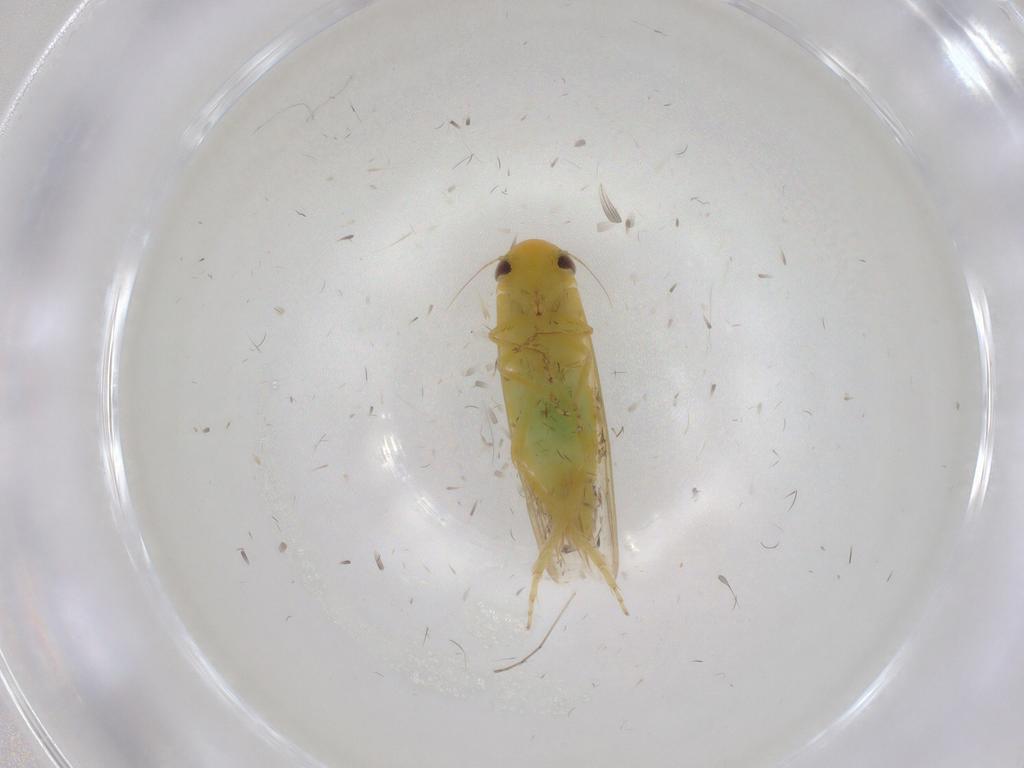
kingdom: Animalia
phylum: Arthropoda
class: Insecta
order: Hemiptera
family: Cicadellidae
